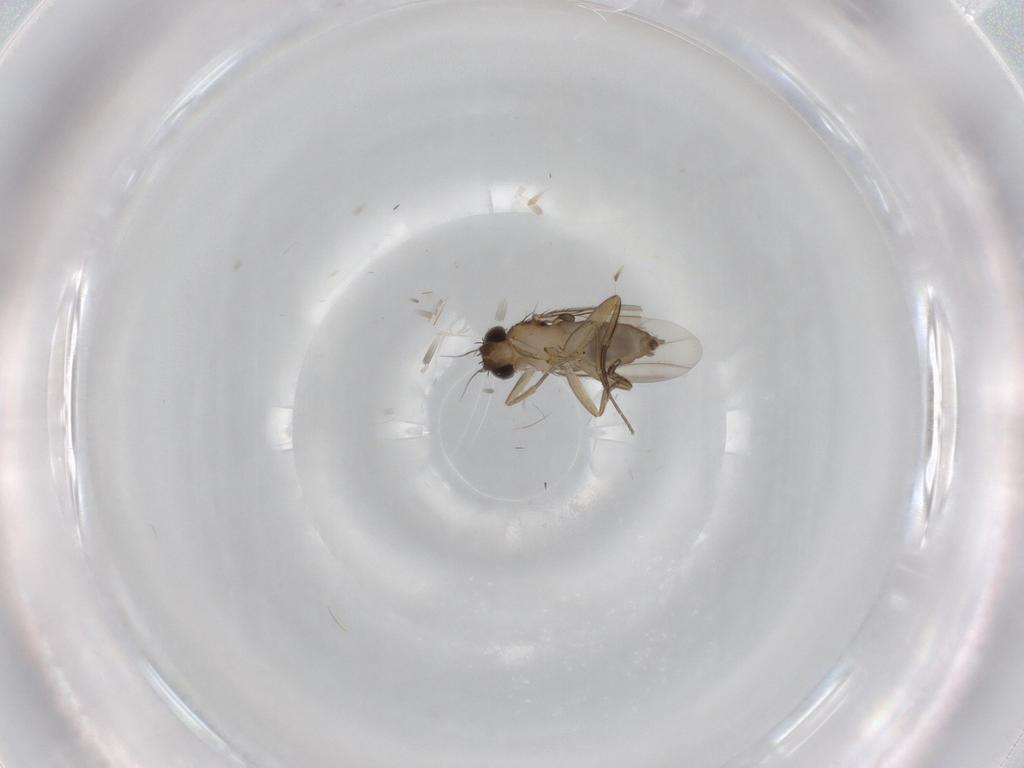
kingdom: Animalia
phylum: Arthropoda
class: Insecta
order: Diptera
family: Phoridae
